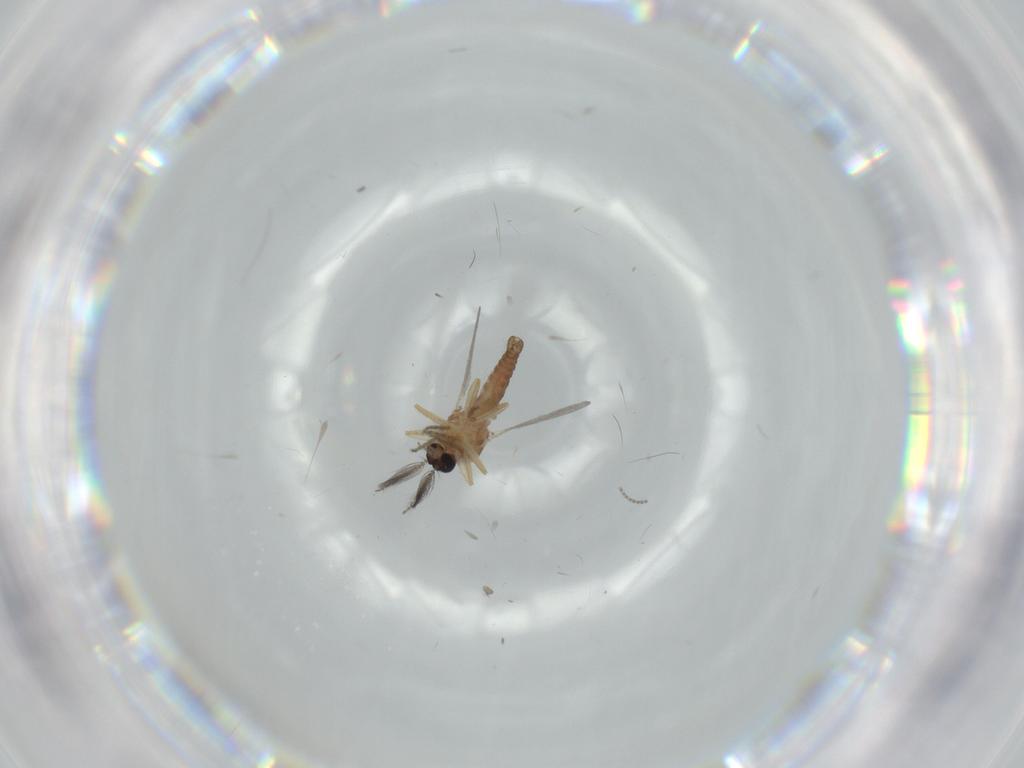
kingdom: Animalia
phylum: Arthropoda
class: Insecta
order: Diptera
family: Ceratopogonidae
